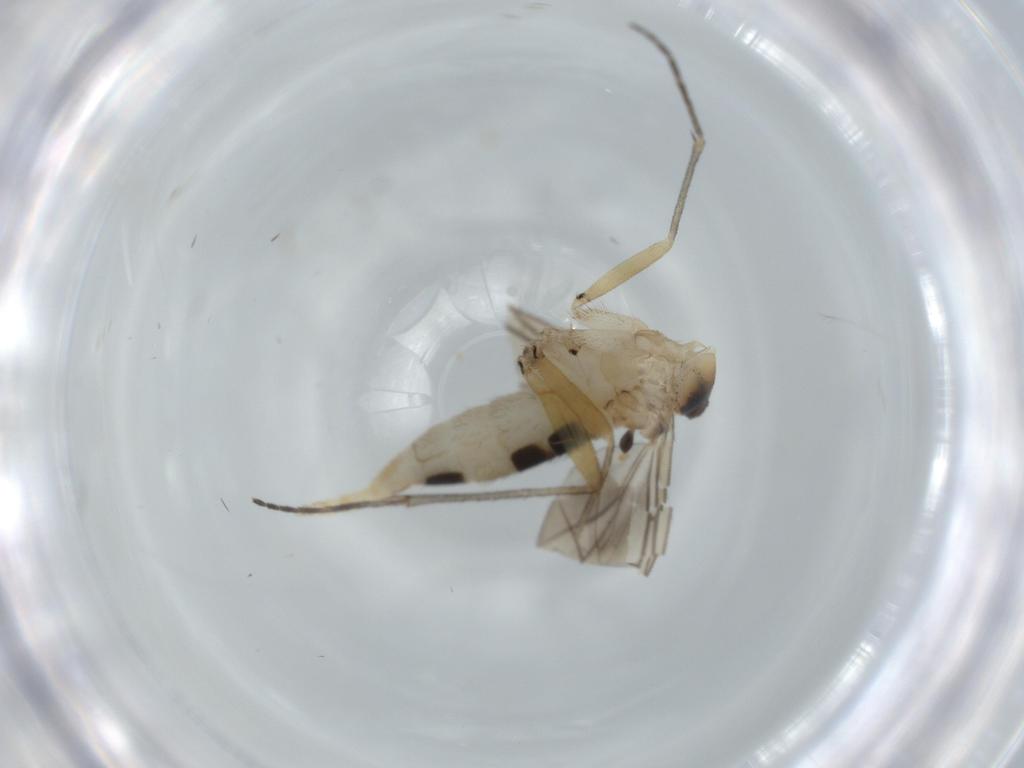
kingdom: Animalia
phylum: Arthropoda
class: Insecta
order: Diptera
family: Sciaridae
